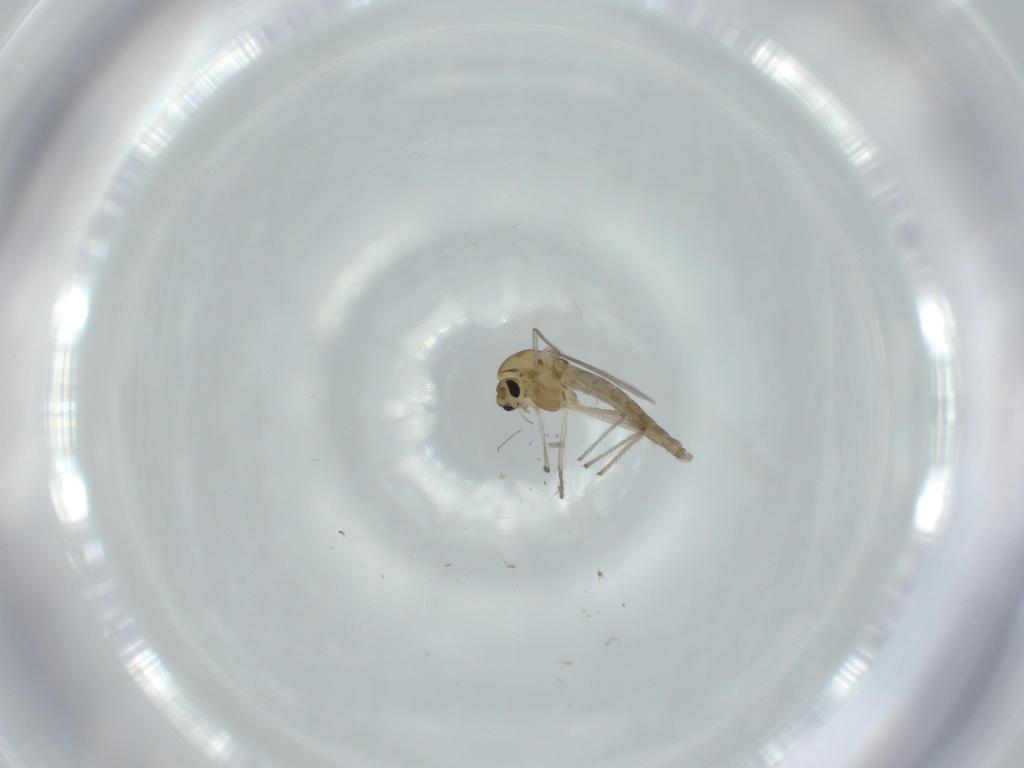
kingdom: Animalia
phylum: Arthropoda
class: Insecta
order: Diptera
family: Chironomidae
